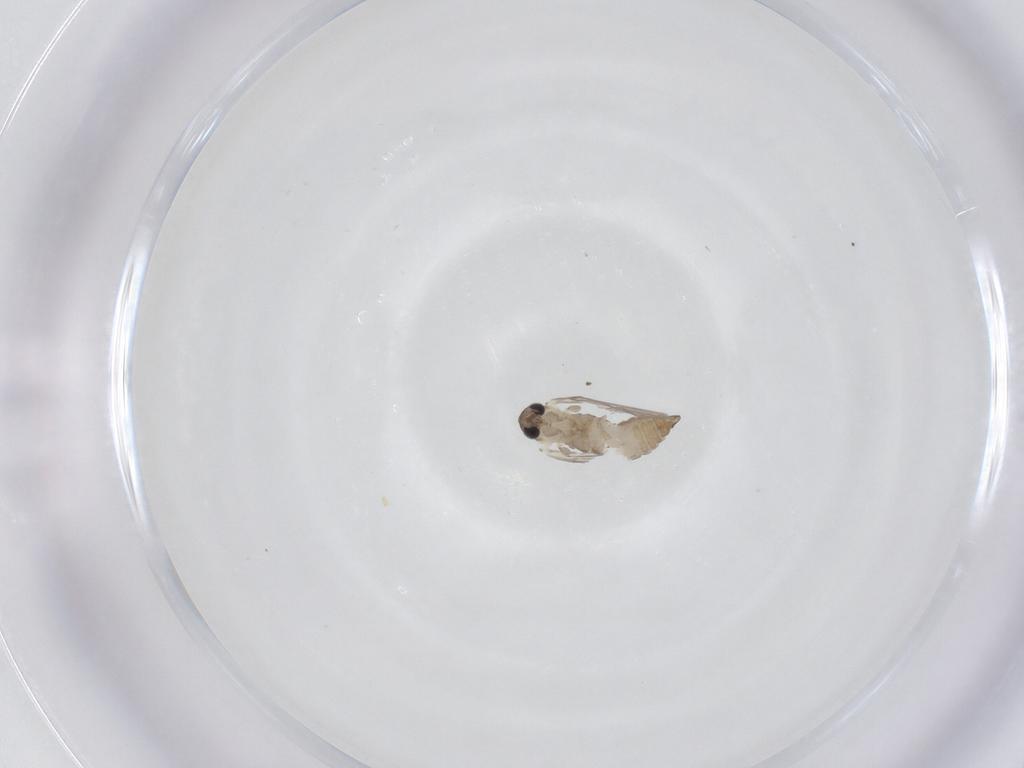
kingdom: Animalia
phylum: Arthropoda
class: Insecta
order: Diptera
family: Psychodidae
